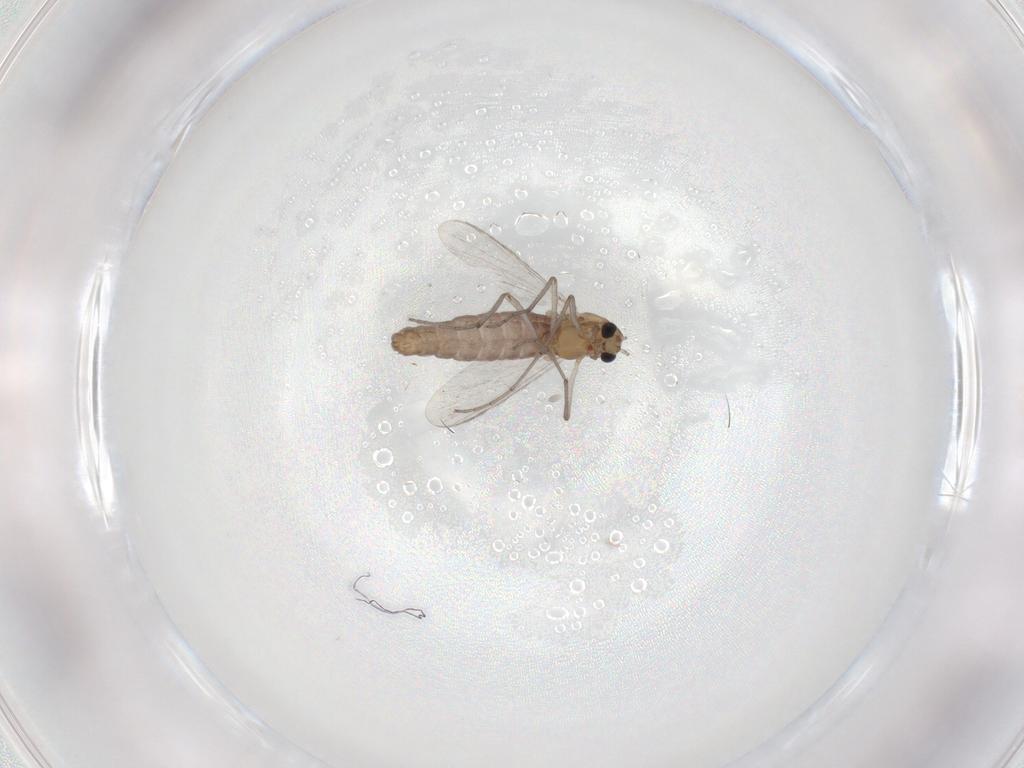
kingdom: Animalia
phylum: Arthropoda
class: Insecta
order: Diptera
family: Chironomidae
